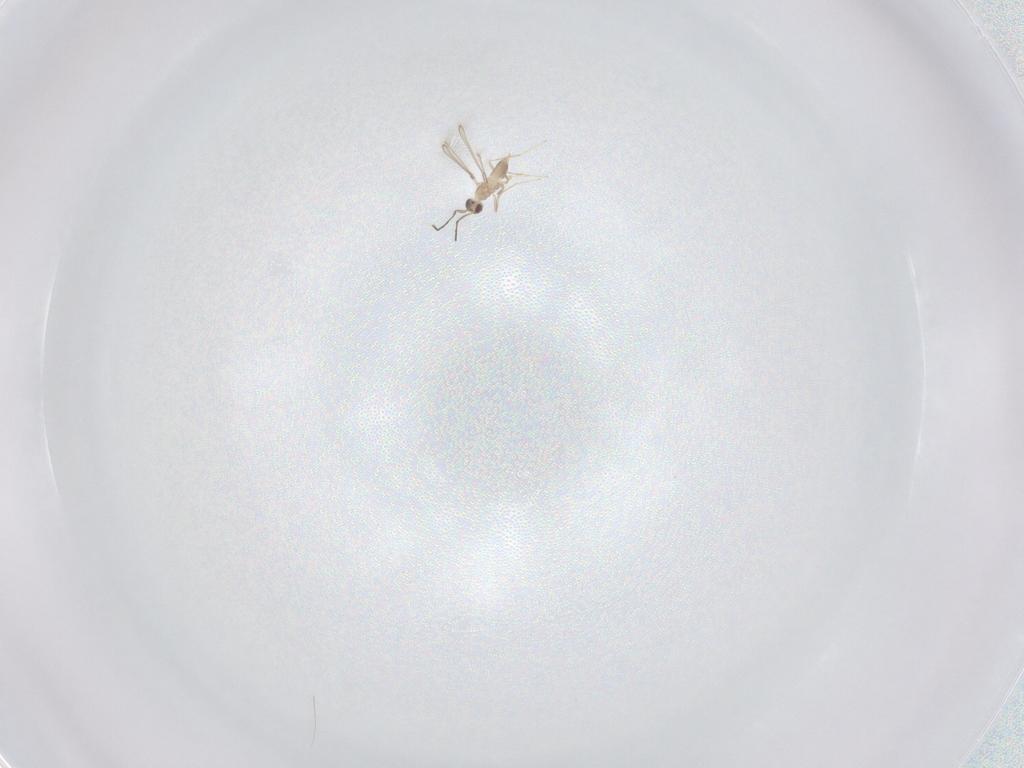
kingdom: Animalia
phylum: Arthropoda
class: Insecta
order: Hymenoptera
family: Mymaridae
